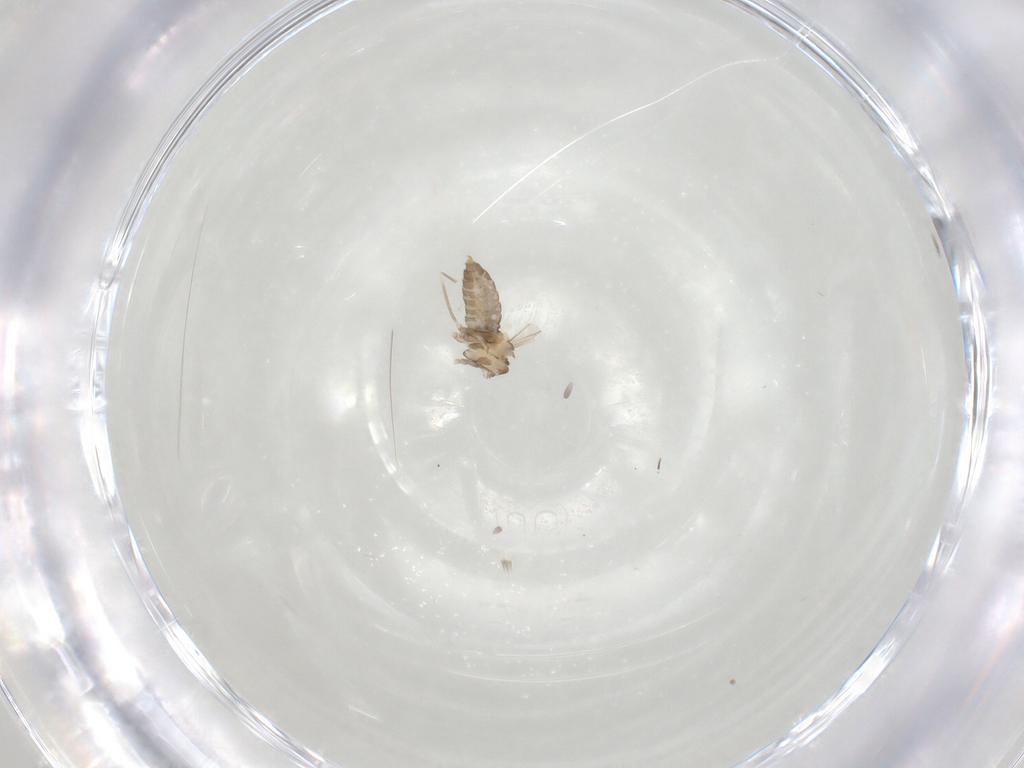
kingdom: Animalia
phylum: Arthropoda
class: Insecta
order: Diptera
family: Cecidomyiidae
